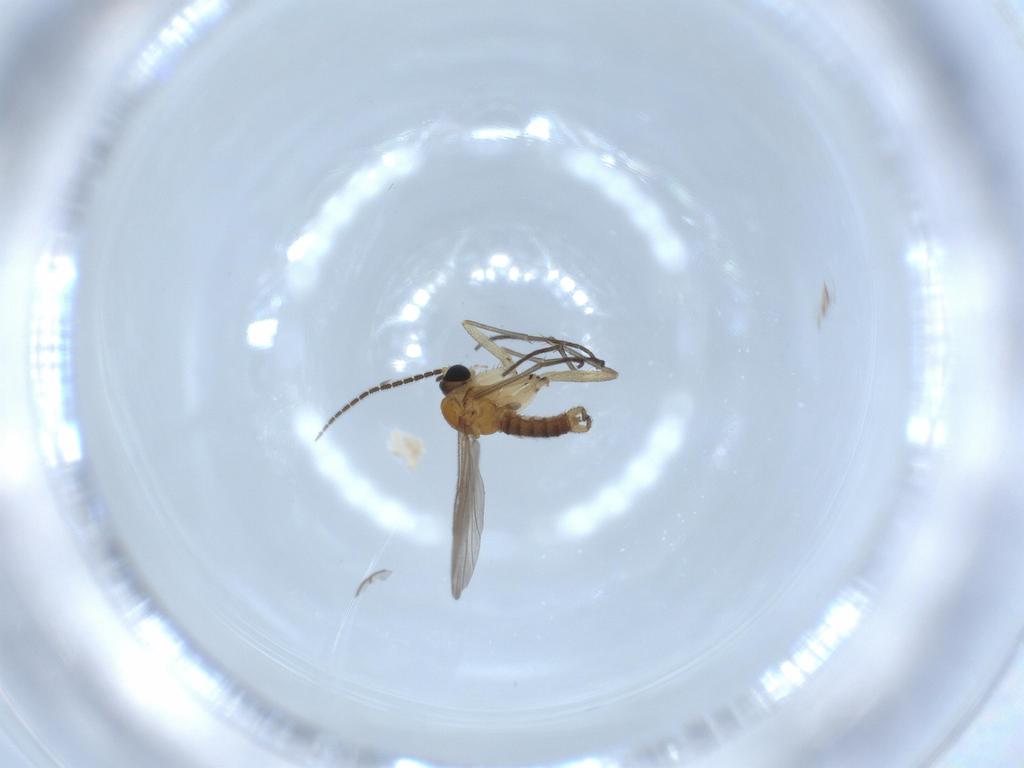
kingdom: Animalia
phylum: Arthropoda
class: Insecta
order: Diptera
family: Sciaridae
